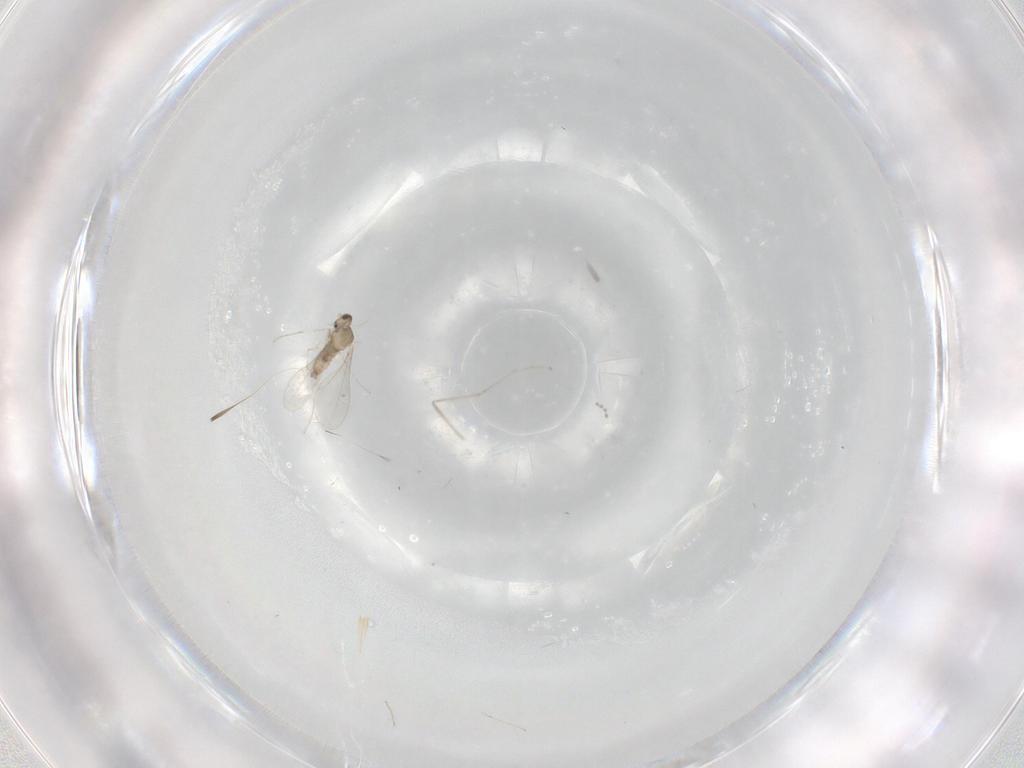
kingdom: Animalia
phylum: Arthropoda
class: Insecta
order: Diptera
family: Cecidomyiidae
